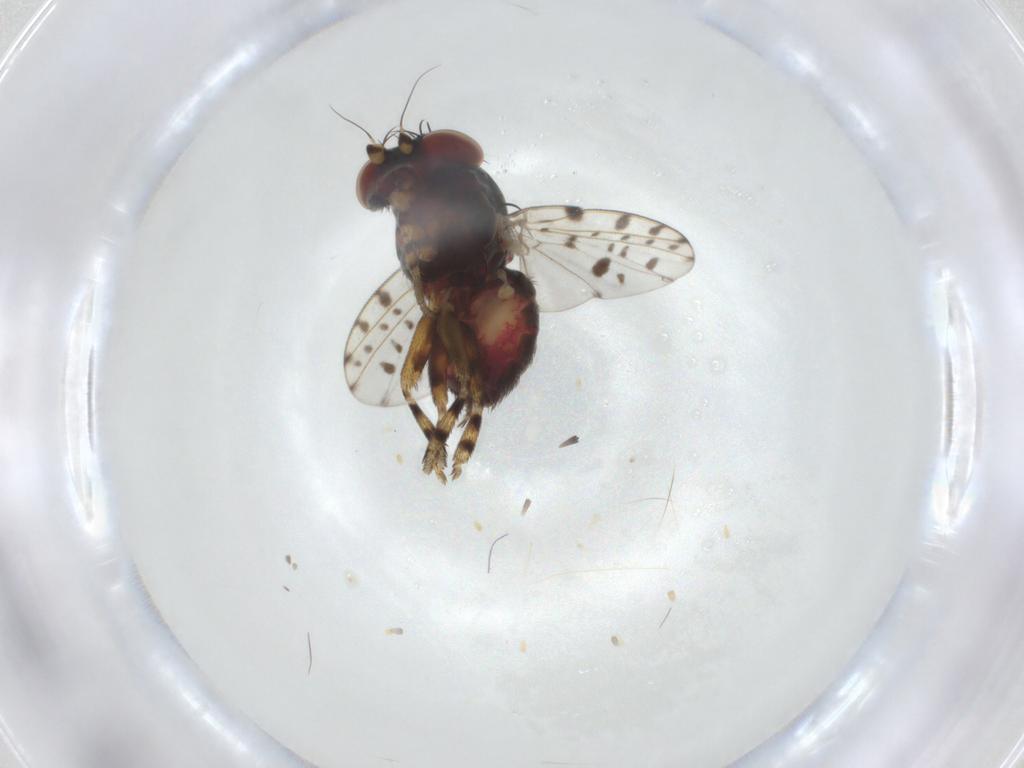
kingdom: Animalia
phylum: Arthropoda
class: Insecta
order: Diptera
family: Odiniidae
